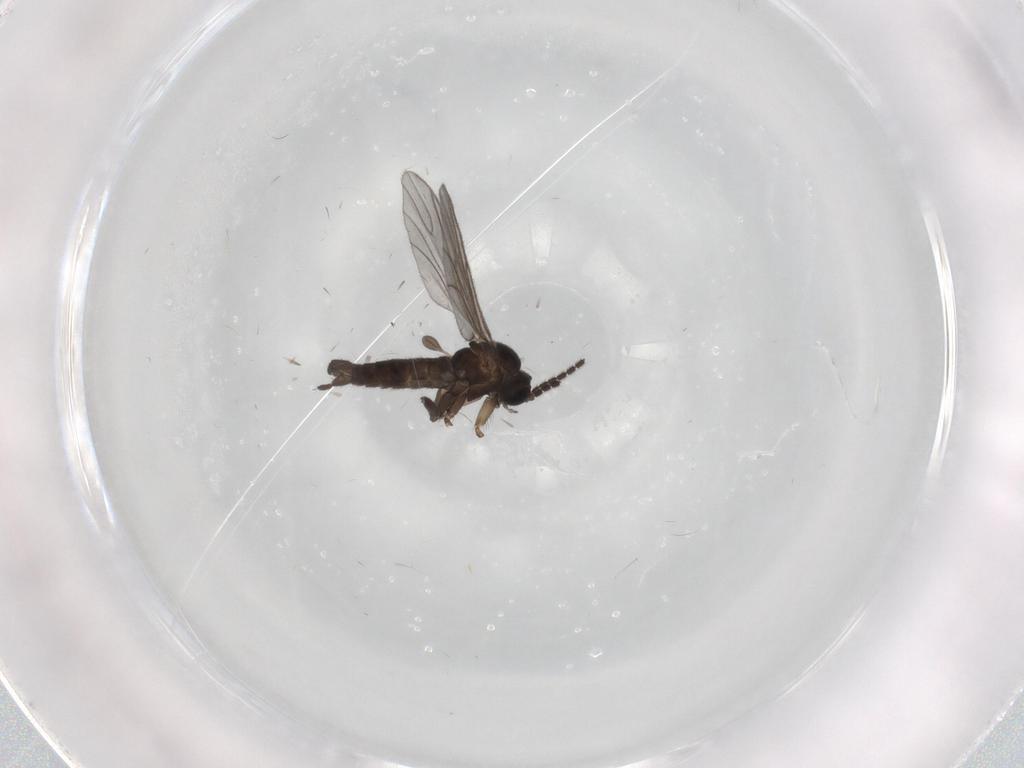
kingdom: Animalia
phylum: Arthropoda
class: Insecta
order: Diptera
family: Sciaridae
